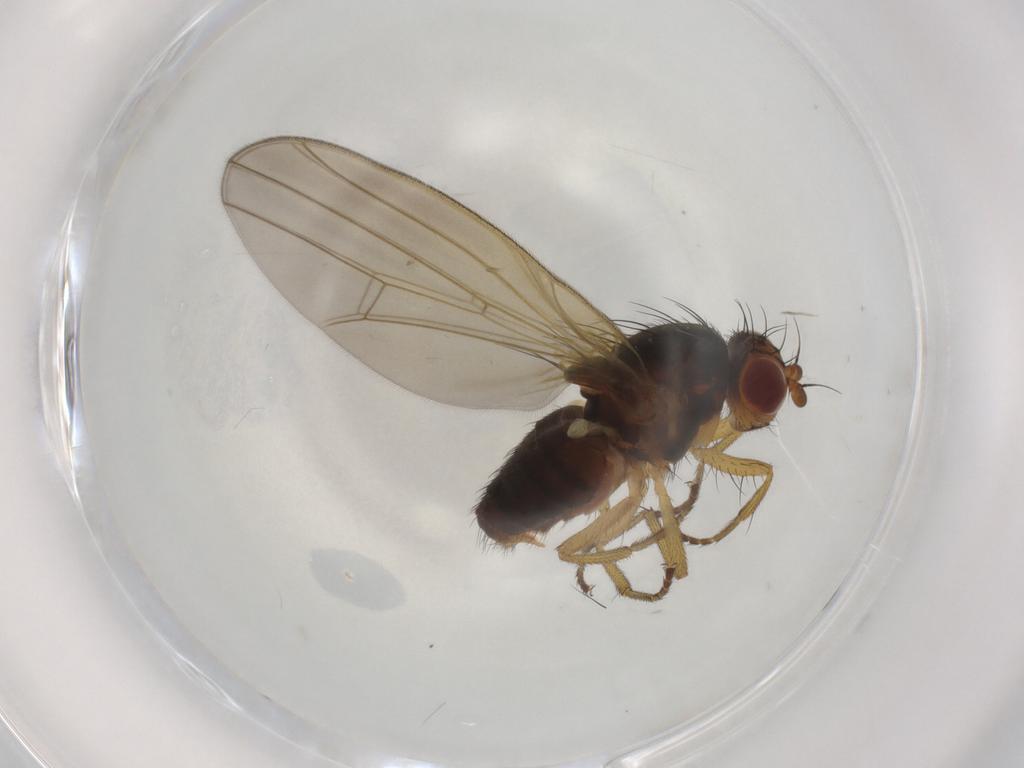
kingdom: Animalia
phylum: Arthropoda
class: Insecta
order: Diptera
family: Lauxaniidae
